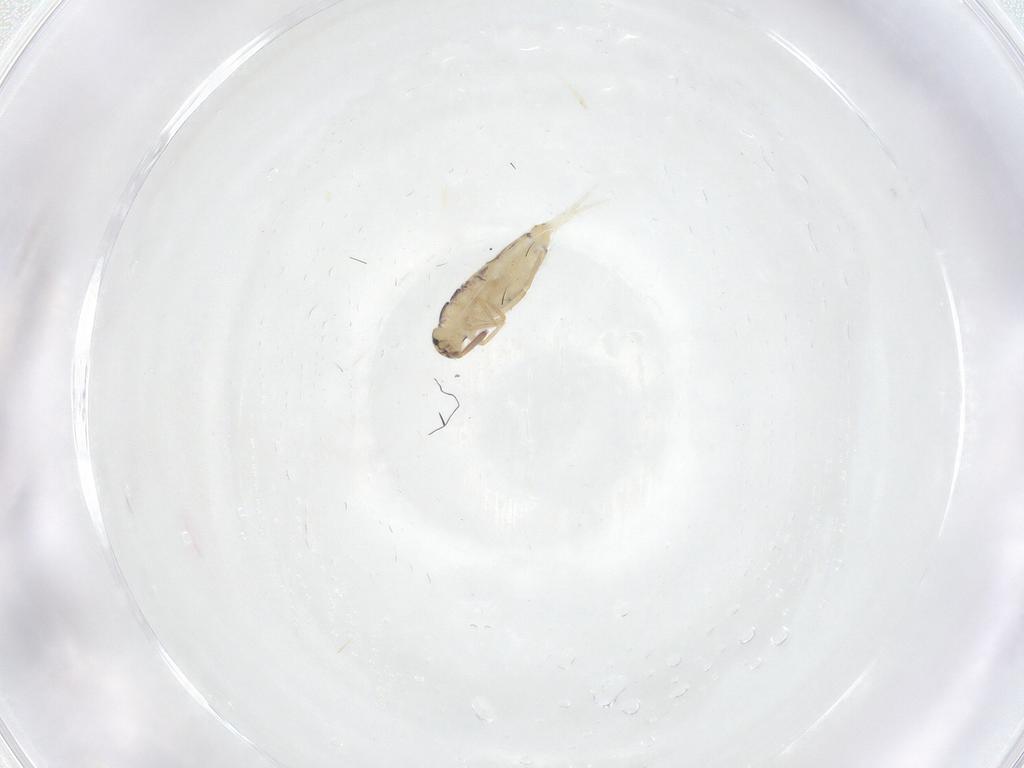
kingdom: Animalia
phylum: Arthropoda
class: Collembola
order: Entomobryomorpha
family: Entomobryidae
